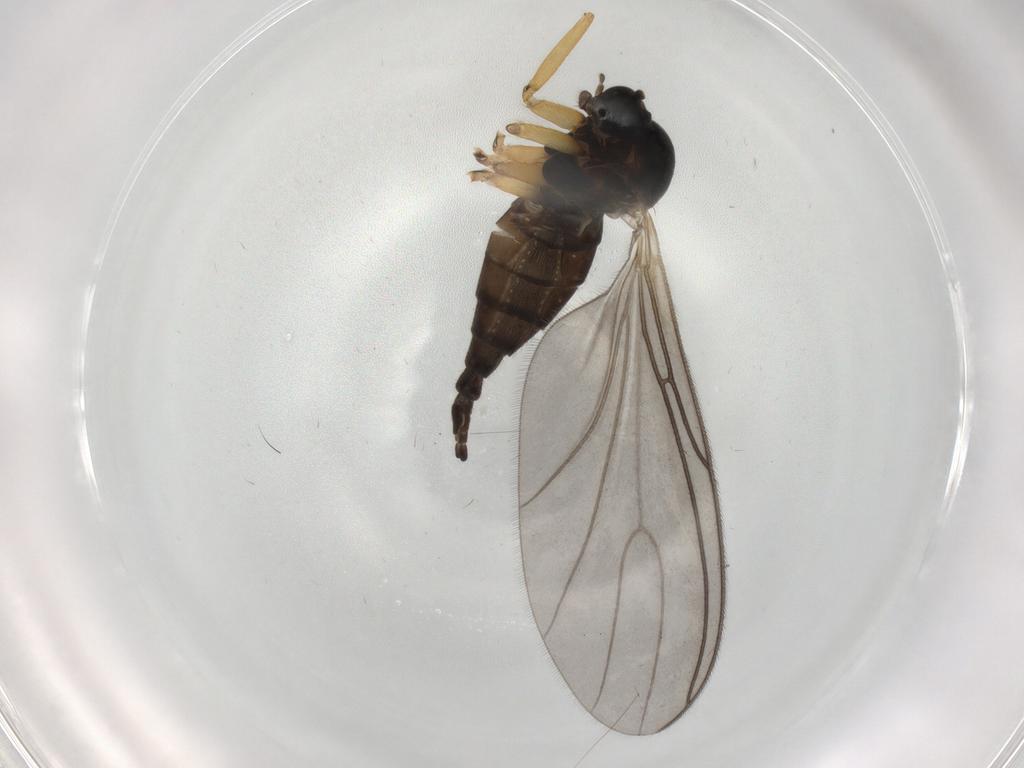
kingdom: Animalia
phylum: Arthropoda
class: Insecta
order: Diptera
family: Sciaridae
